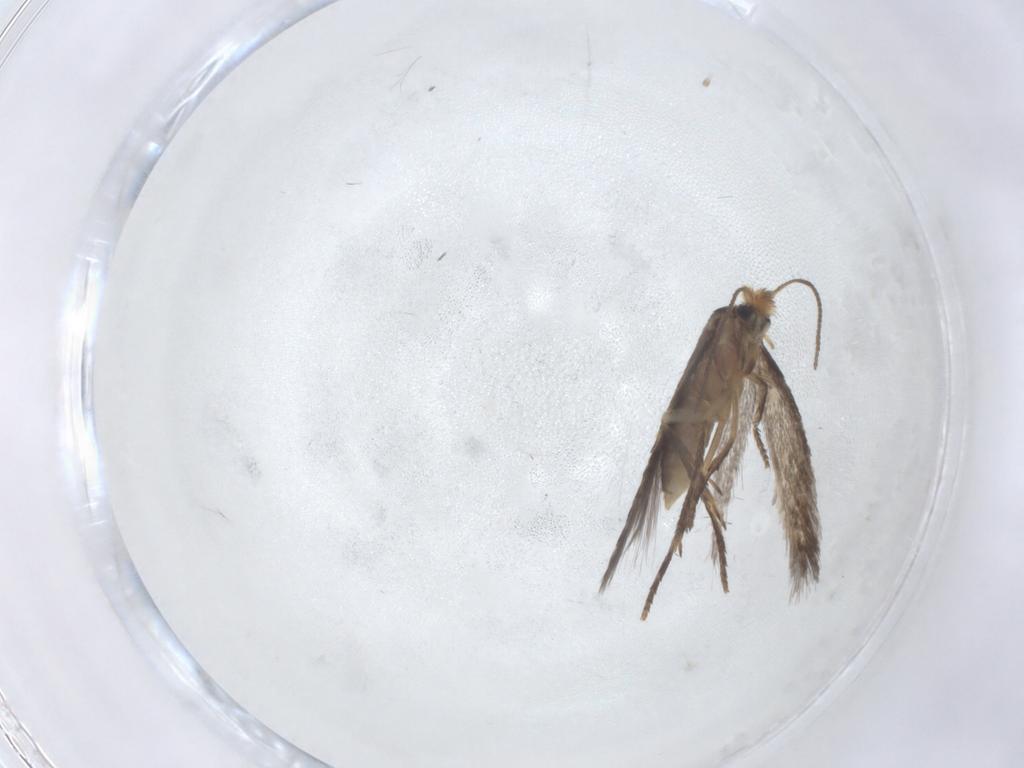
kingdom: Animalia
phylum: Arthropoda
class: Insecta
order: Lepidoptera
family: Nepticulidae
